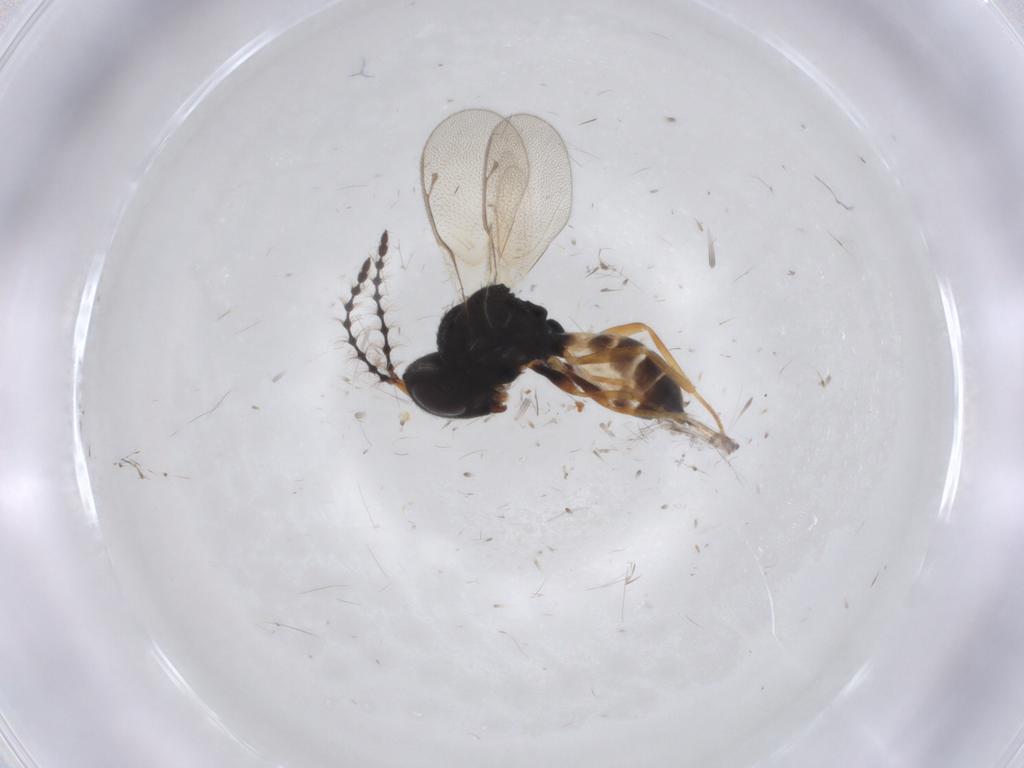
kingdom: Animalia
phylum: Arthropoda
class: Insecta
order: Hymenoptera
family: Pteromalidae
